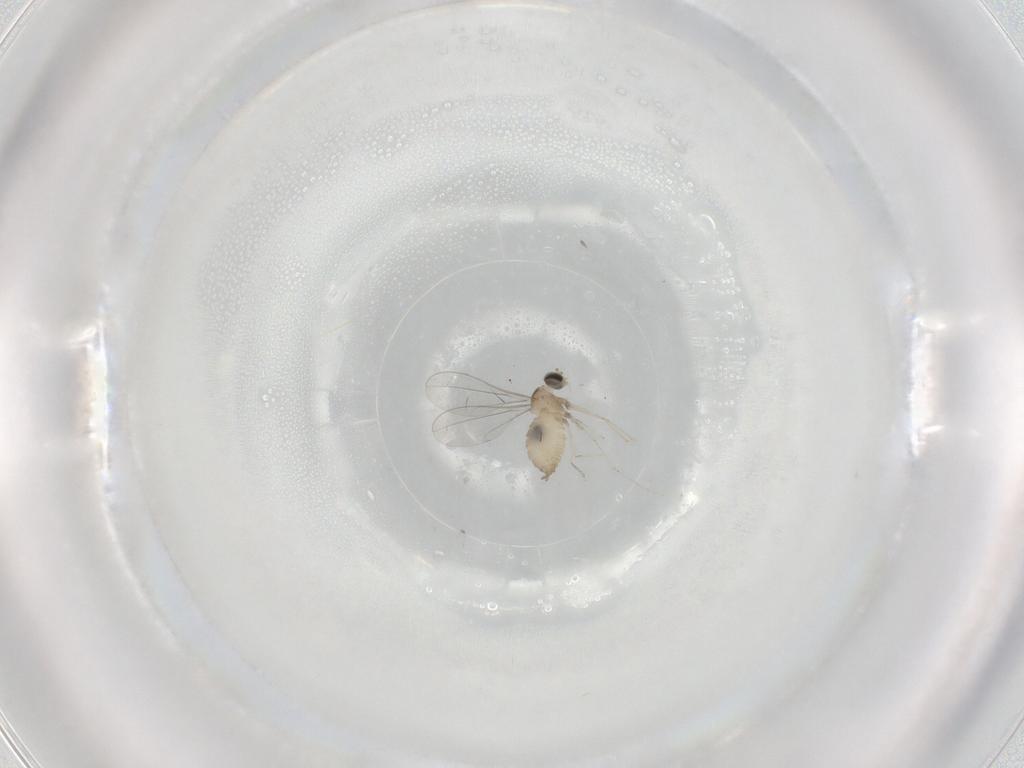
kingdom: Animalia
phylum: Arthropoda
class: Insecta
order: Diptera
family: Cecidomyiidae
